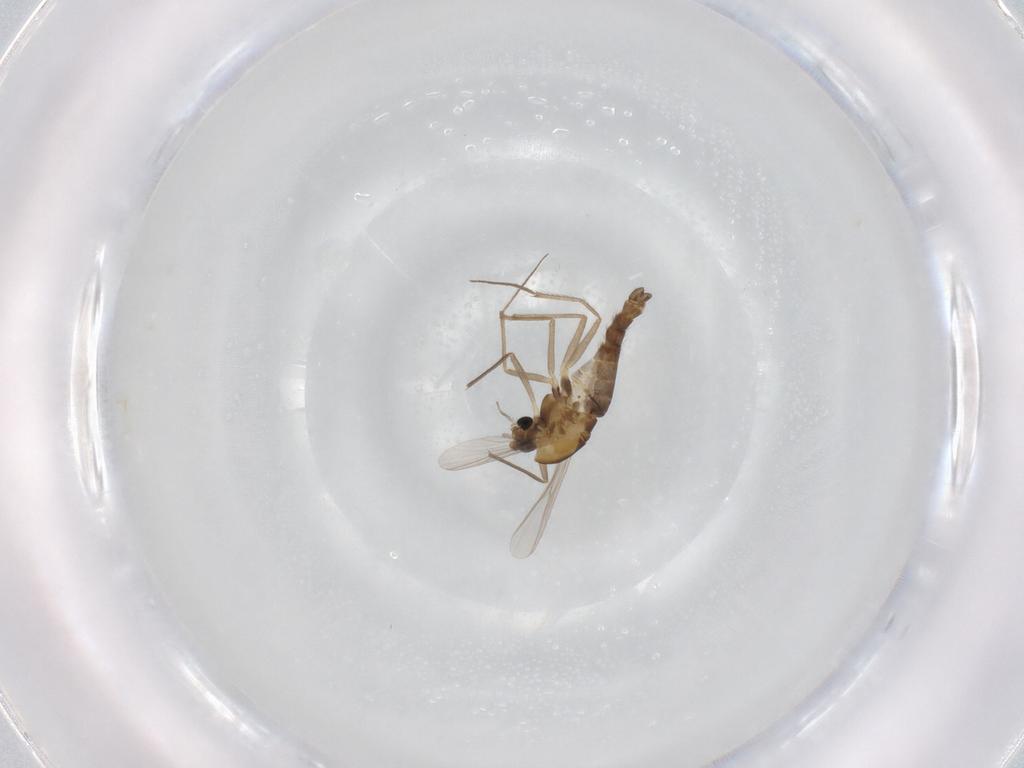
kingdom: Animalia
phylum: Arthropoda
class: Insecta
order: Diptera
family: Chironomidae
